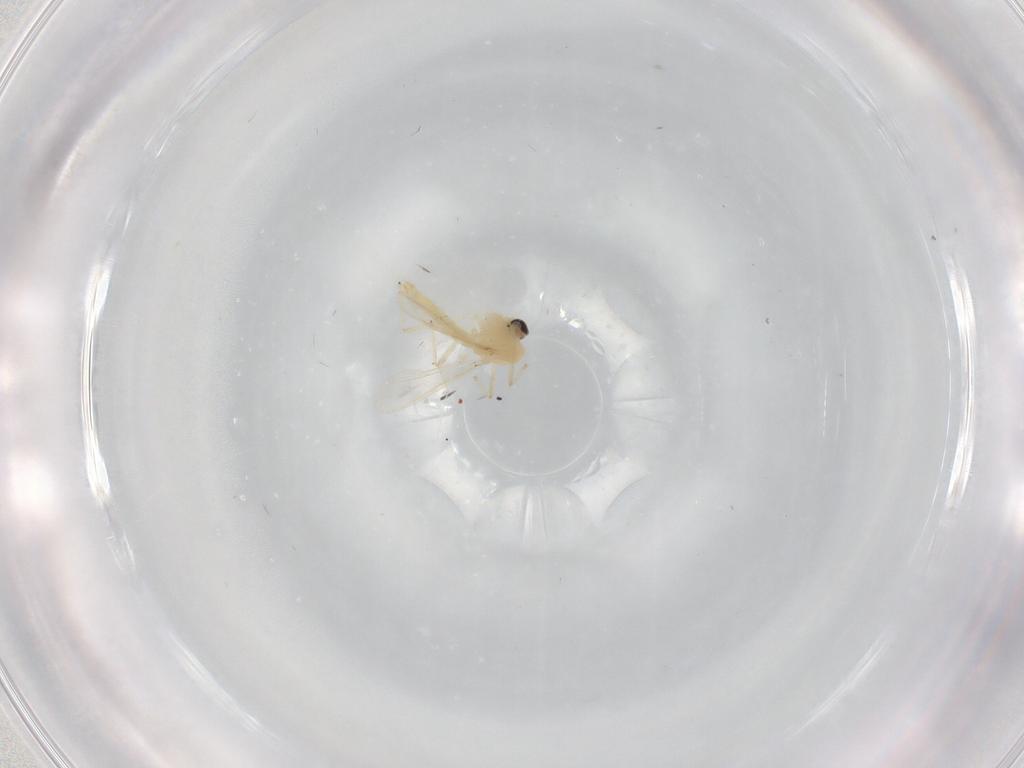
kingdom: Animalia
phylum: Arthropoda
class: Insecta
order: Diptera
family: Chironomidae
